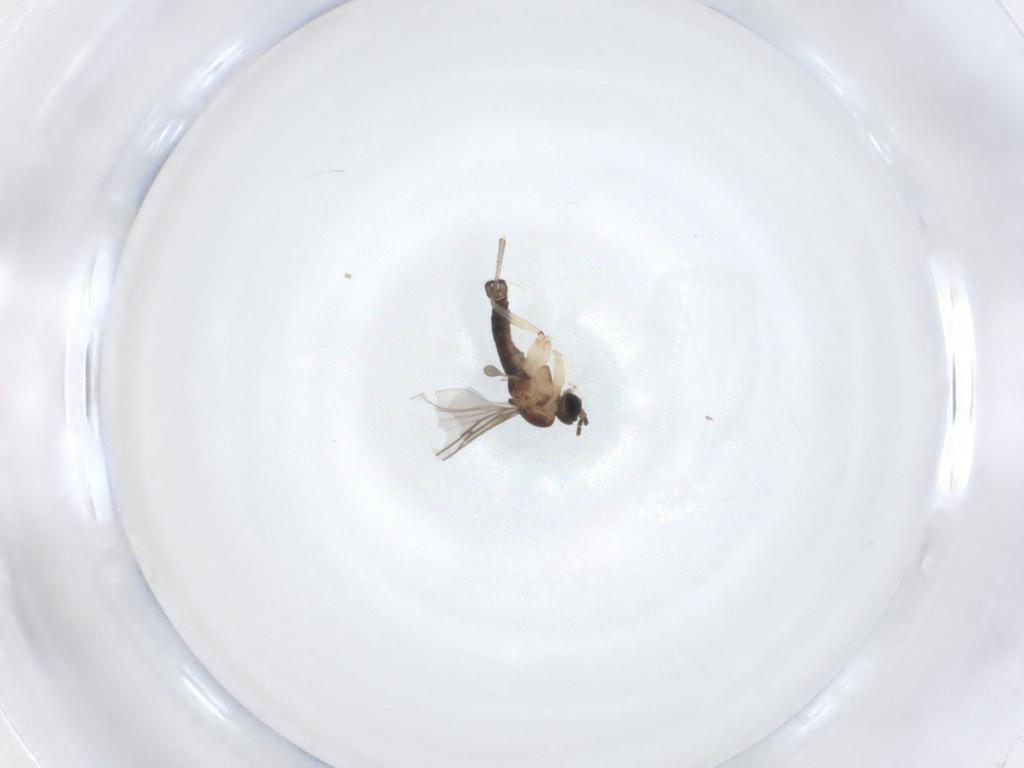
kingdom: Animalia
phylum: Arthropoda
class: Insecta
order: Diptera
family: Sciaridae
